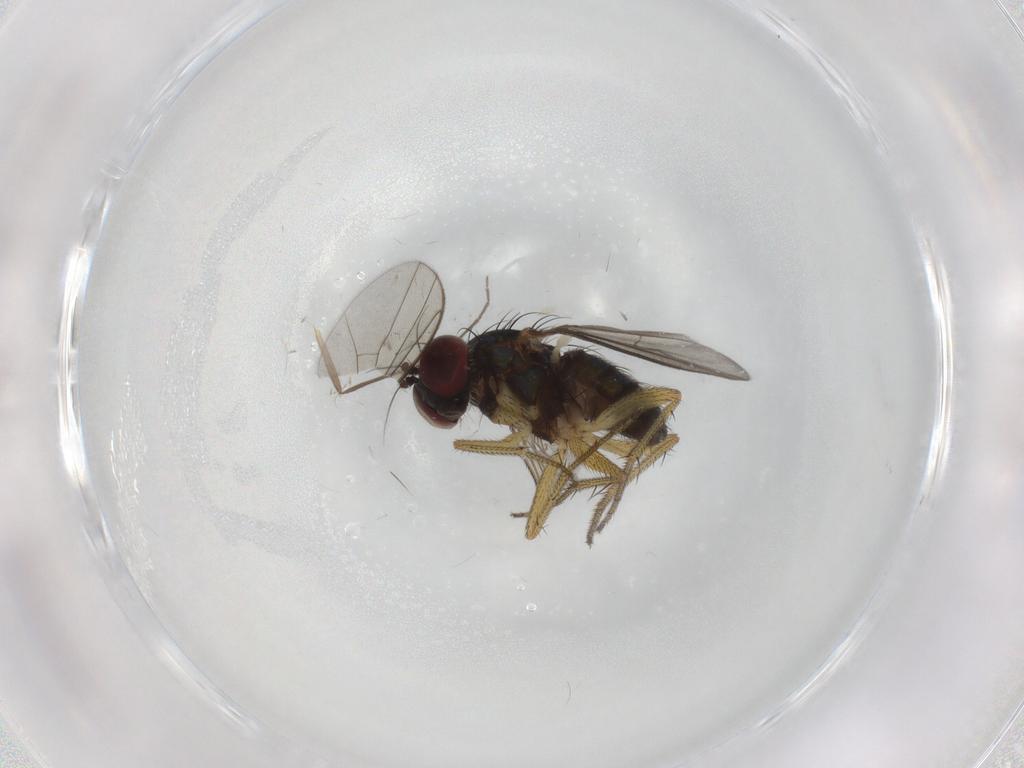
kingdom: Animalia
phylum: Arthropoda
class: Insecta
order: Diptera
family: Dolichopodidae
